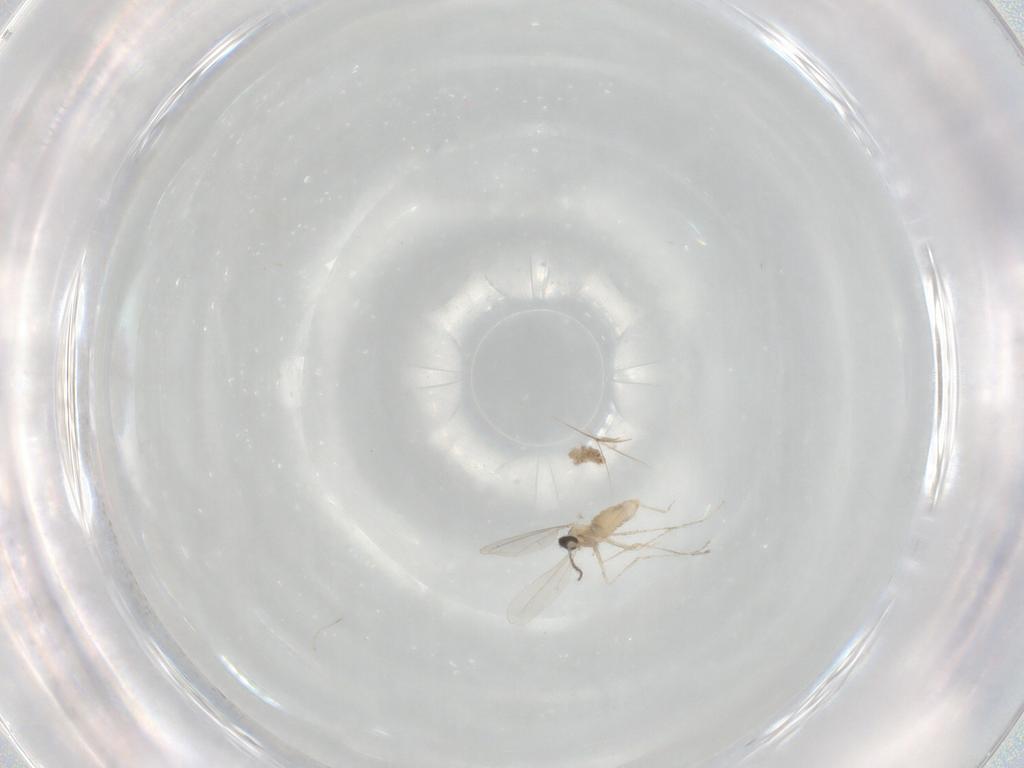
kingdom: Animalia
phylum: Arthropoda
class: Insecta
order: Diptera
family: Cecidomyiidae
